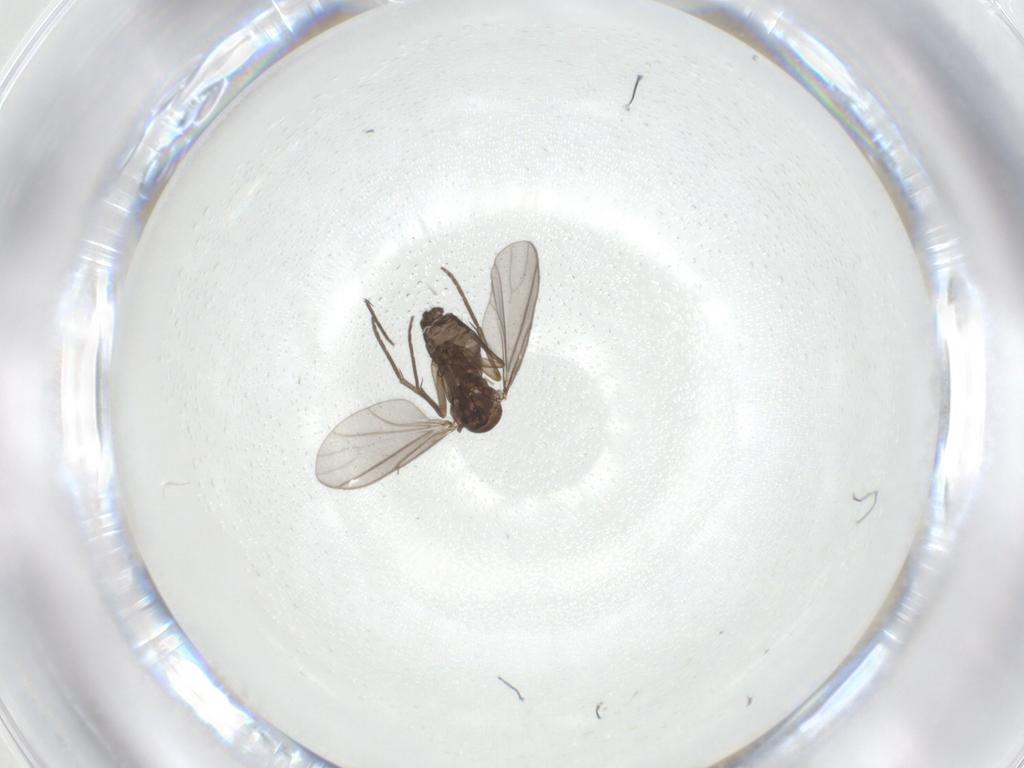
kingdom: Animalia
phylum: Arthropoda
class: Insecta
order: Diptera
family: Sciaridae
